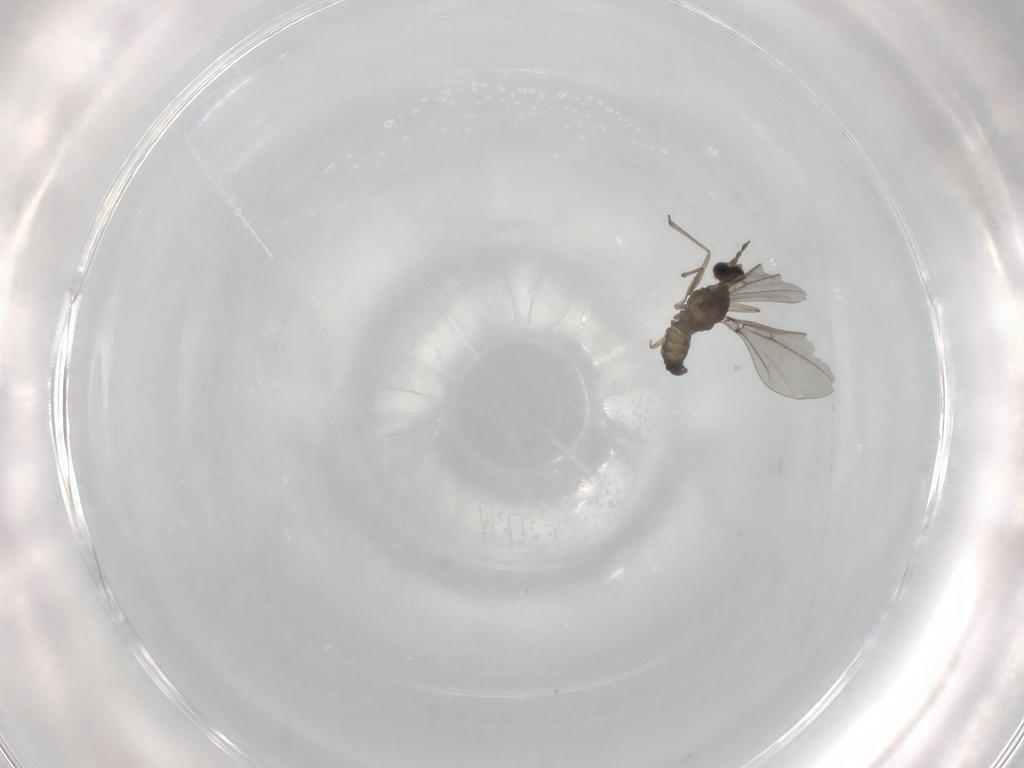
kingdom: Animalia
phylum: Arthropoda
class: Insecta
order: Diptera
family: Cecidomyiidae
